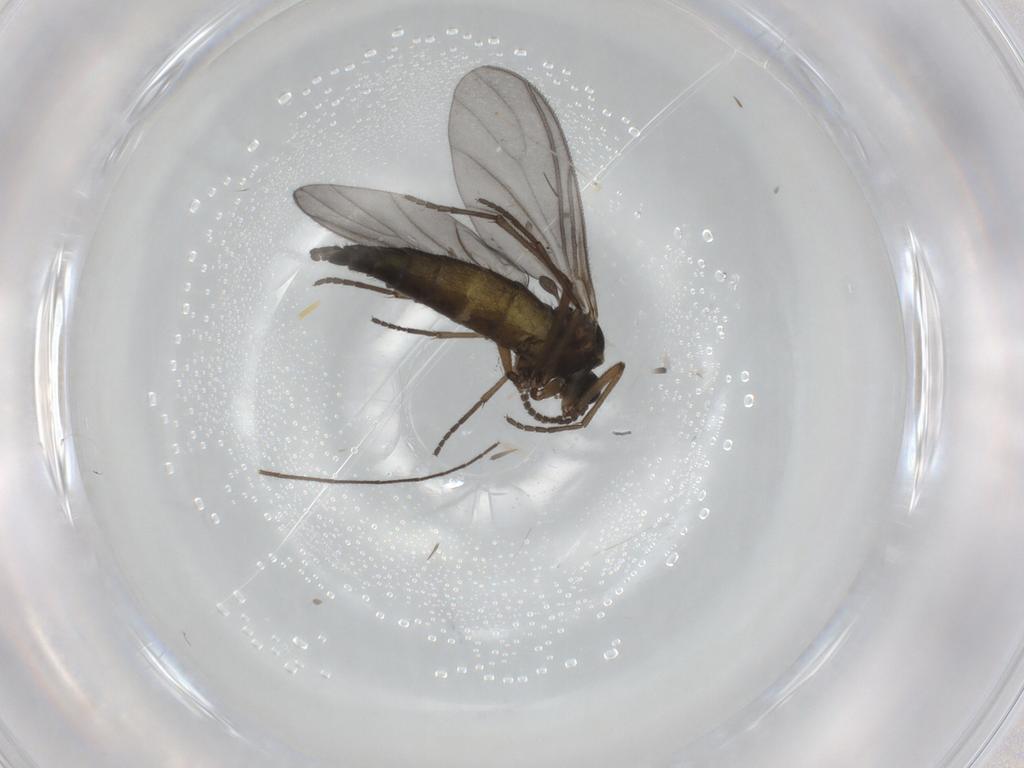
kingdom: Animalia
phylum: Arthropoda
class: Insecta
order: Diptera
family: Sciaridae
